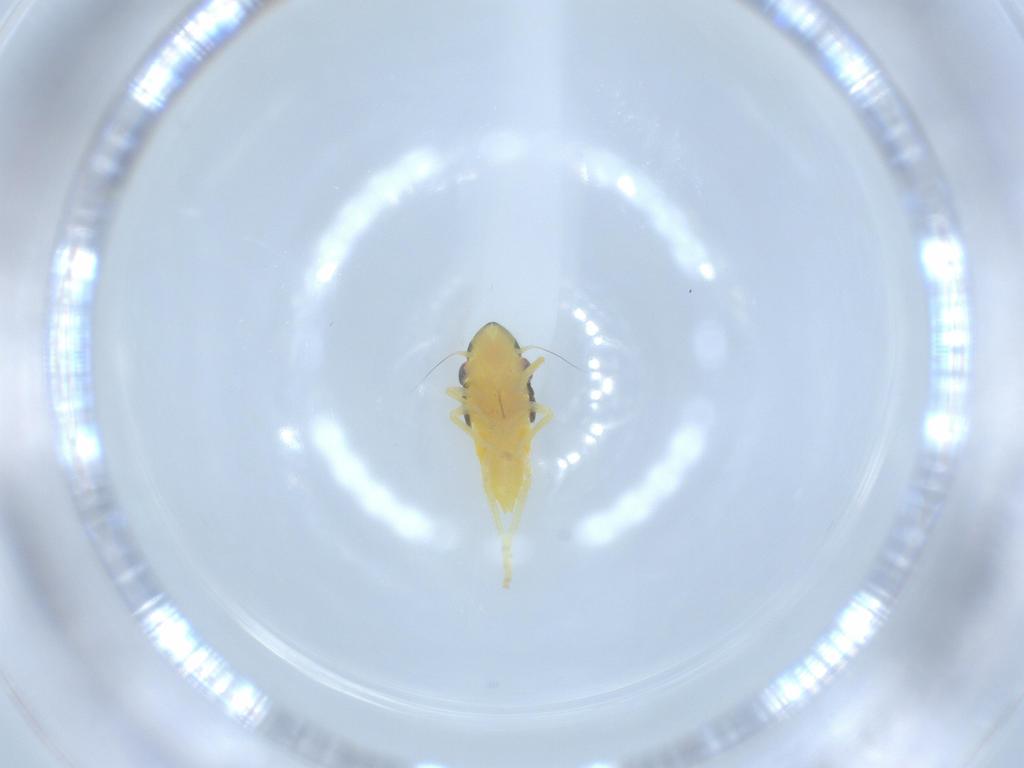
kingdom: Animalia
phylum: Arthropoda
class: Insecta
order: Hemiptera
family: Cicadellidae
